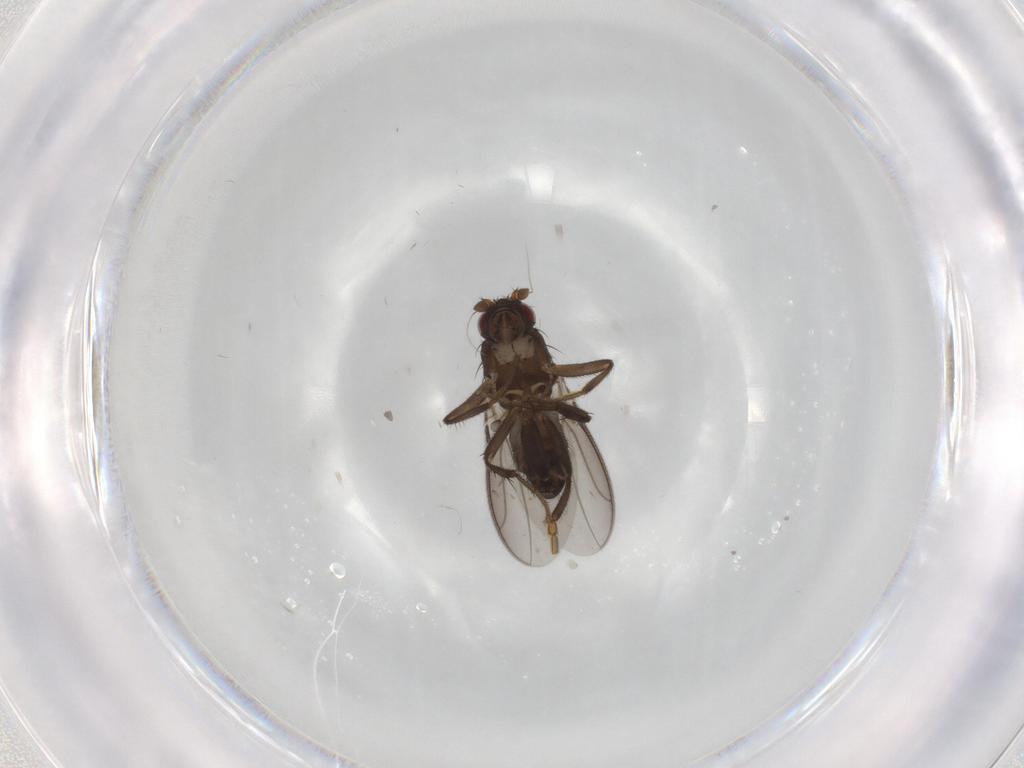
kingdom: Animalia
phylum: Arthropoda
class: Insecta
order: Diptera
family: Sphaeroceridae
